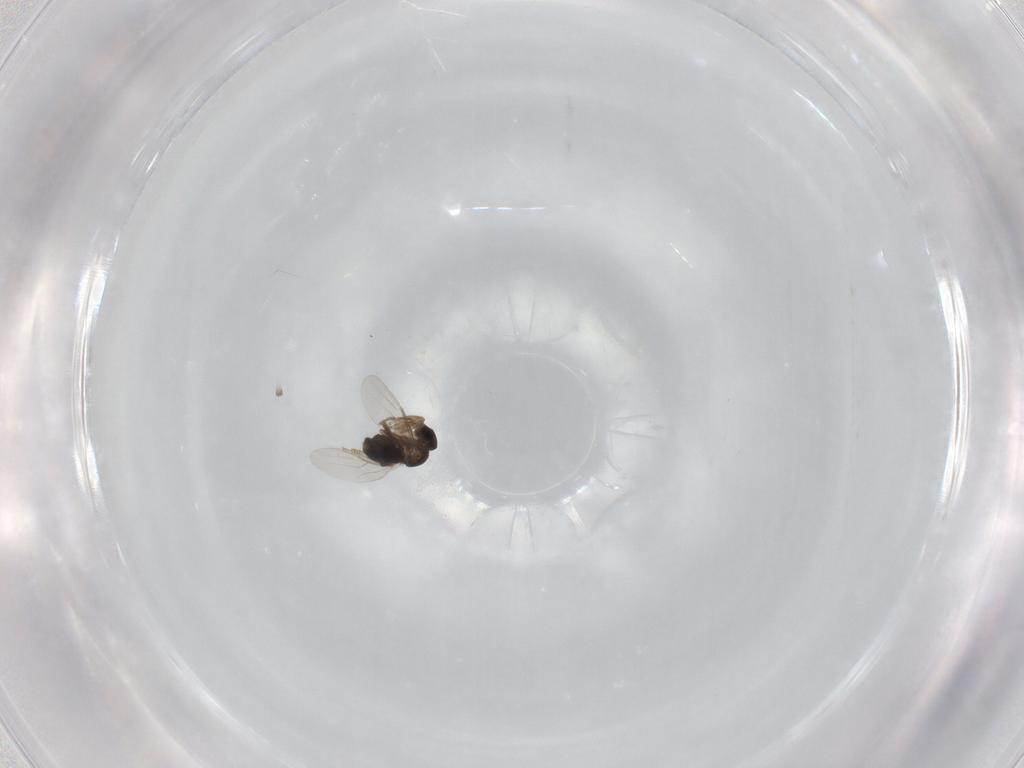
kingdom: Animalia
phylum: Arthropoda
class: Insecta
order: Diptera
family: Phoridae
